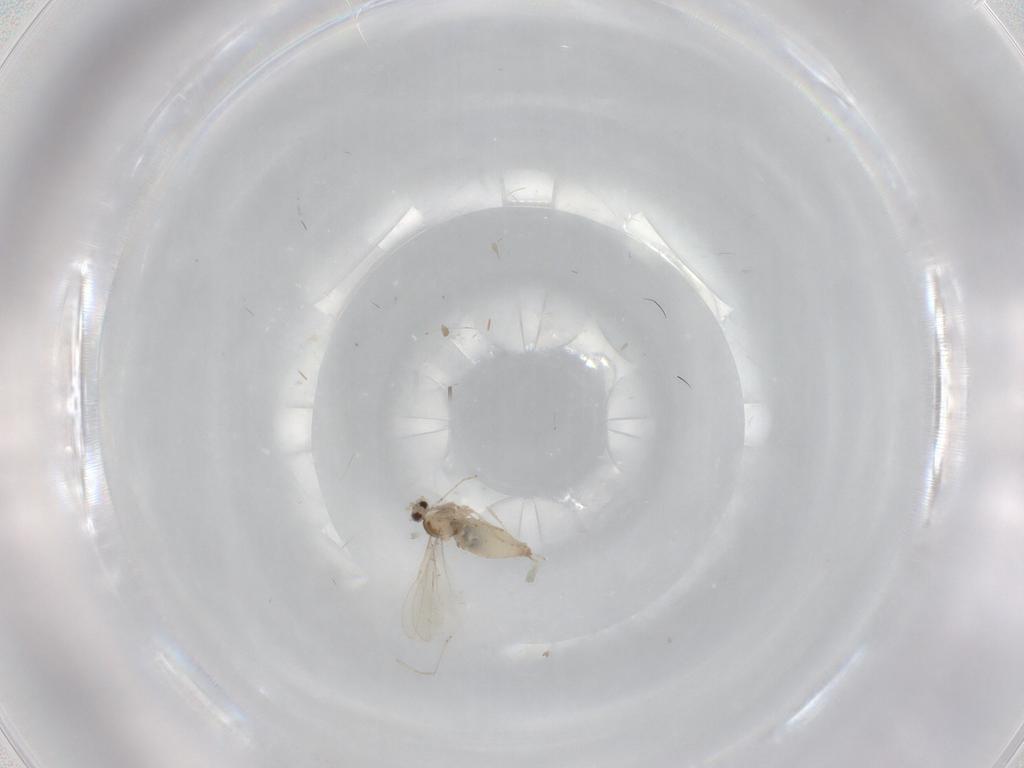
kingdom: Animalia
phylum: Arthropoda
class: Insecta
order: Diptera
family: Cecidomyiidae
